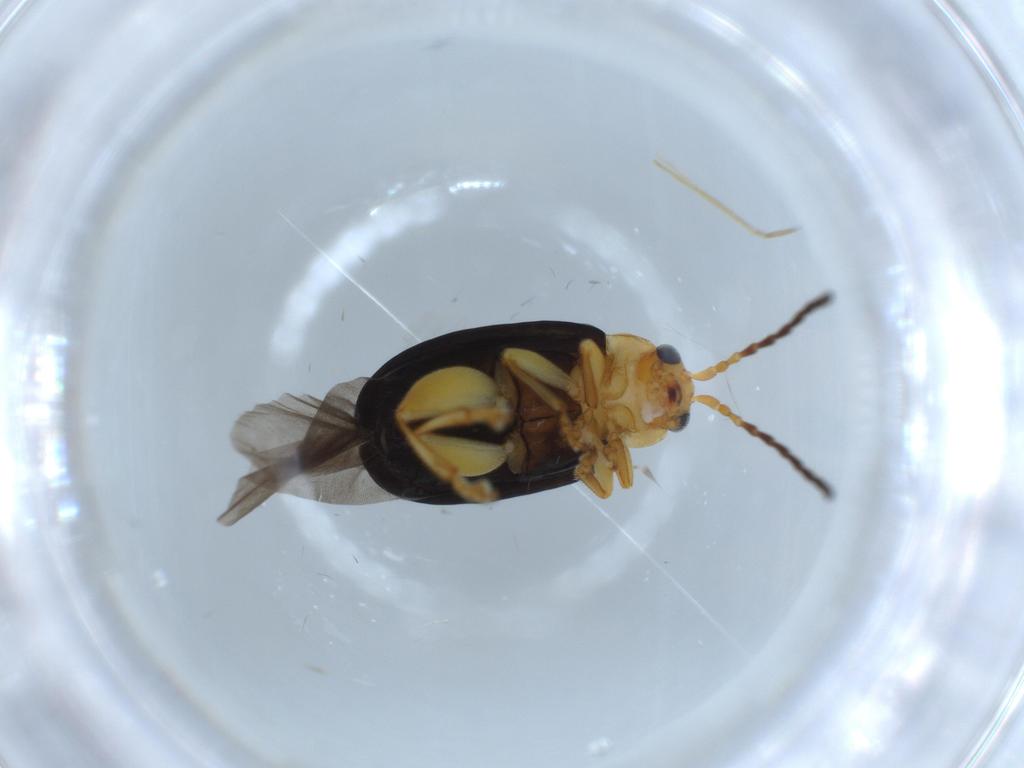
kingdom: Animalia
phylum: Arthropoda
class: Insecta
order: Coleoptera
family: Chrysomelidae
